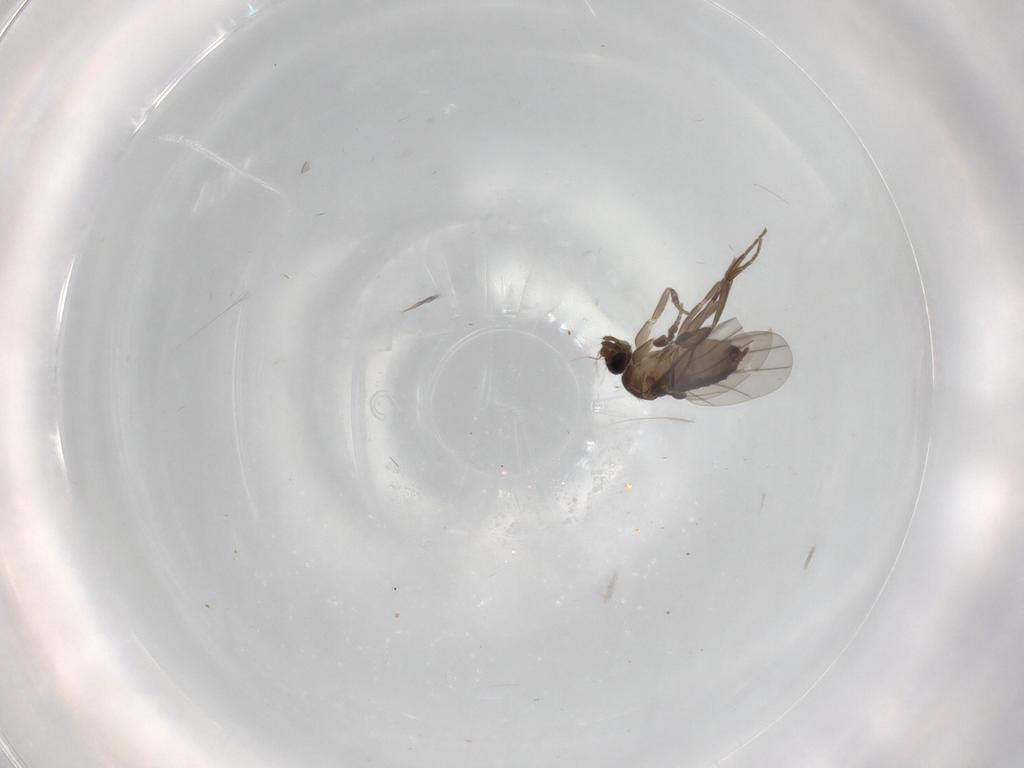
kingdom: Animalia
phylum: Arthropoda
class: Insecta
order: Diptera
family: Phoridae
